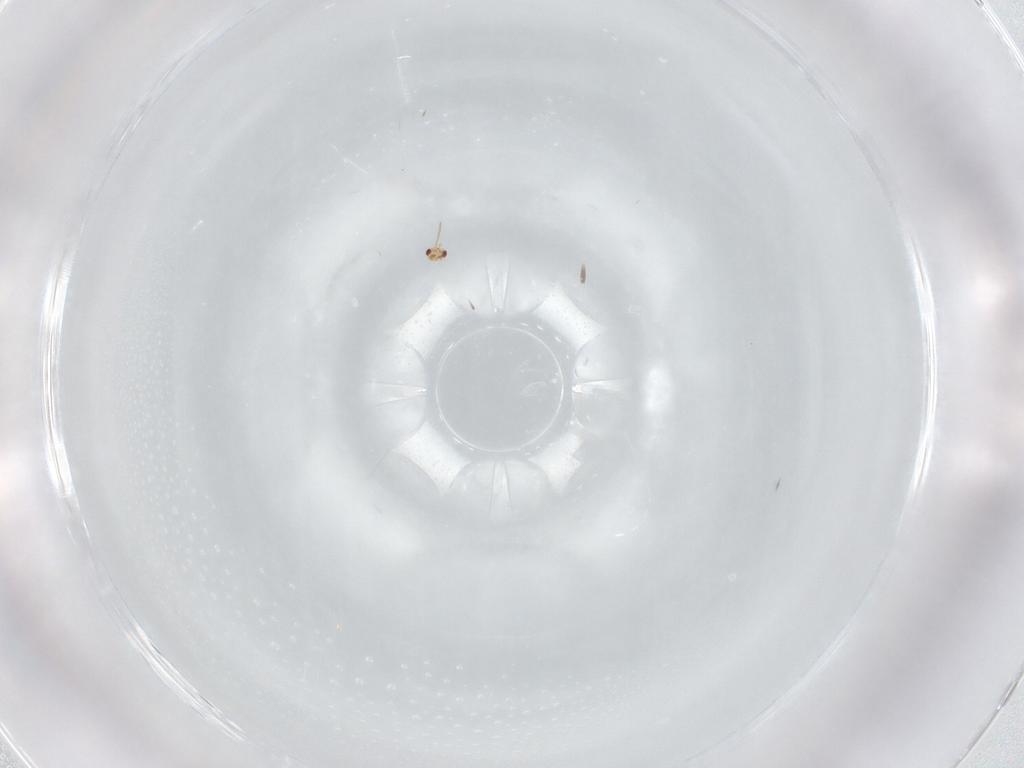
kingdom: Animalia
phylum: Arthropoda
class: Insecta
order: Hymenoptera
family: Aphelinidae
